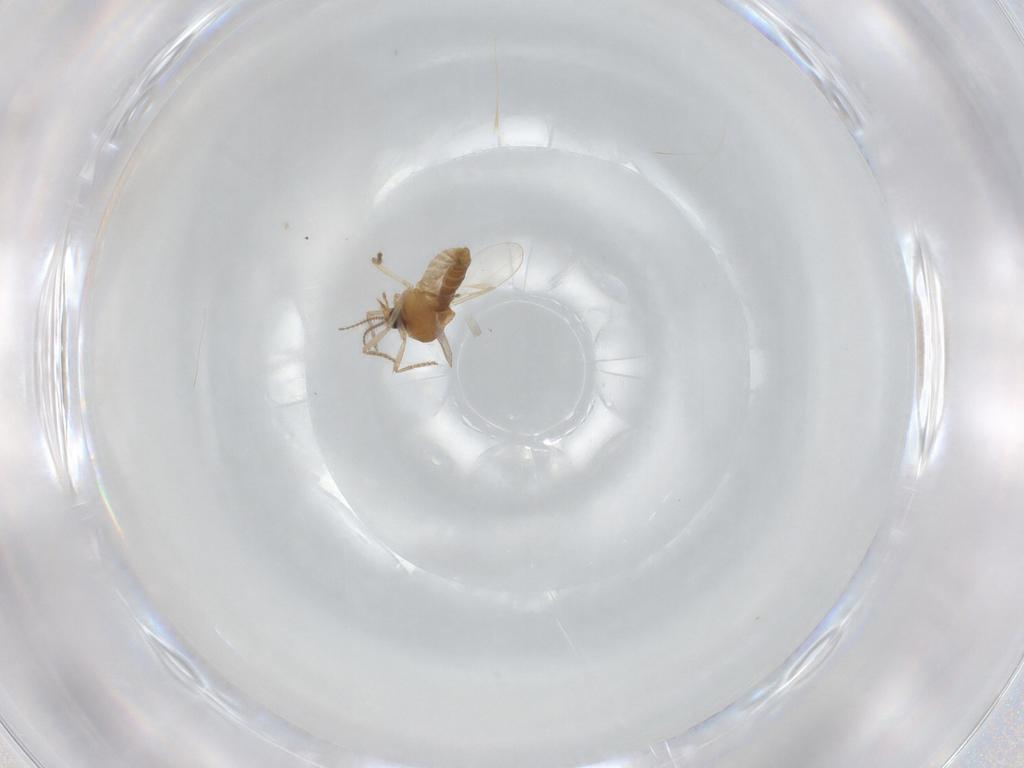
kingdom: Animalia
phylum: Arthropoda
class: Insecta
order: Diptera
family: Ceratopogonidae
